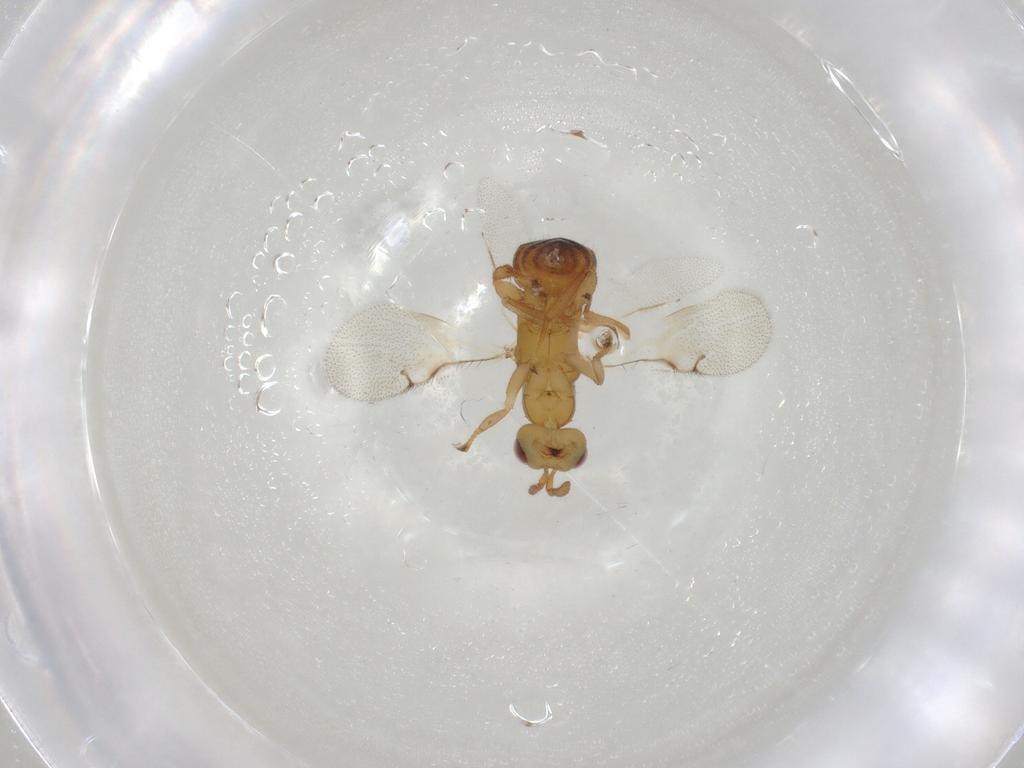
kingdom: Animalia
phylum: Arthropoda
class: Insecta
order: Hymenoptera
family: Epichrysomallidae
